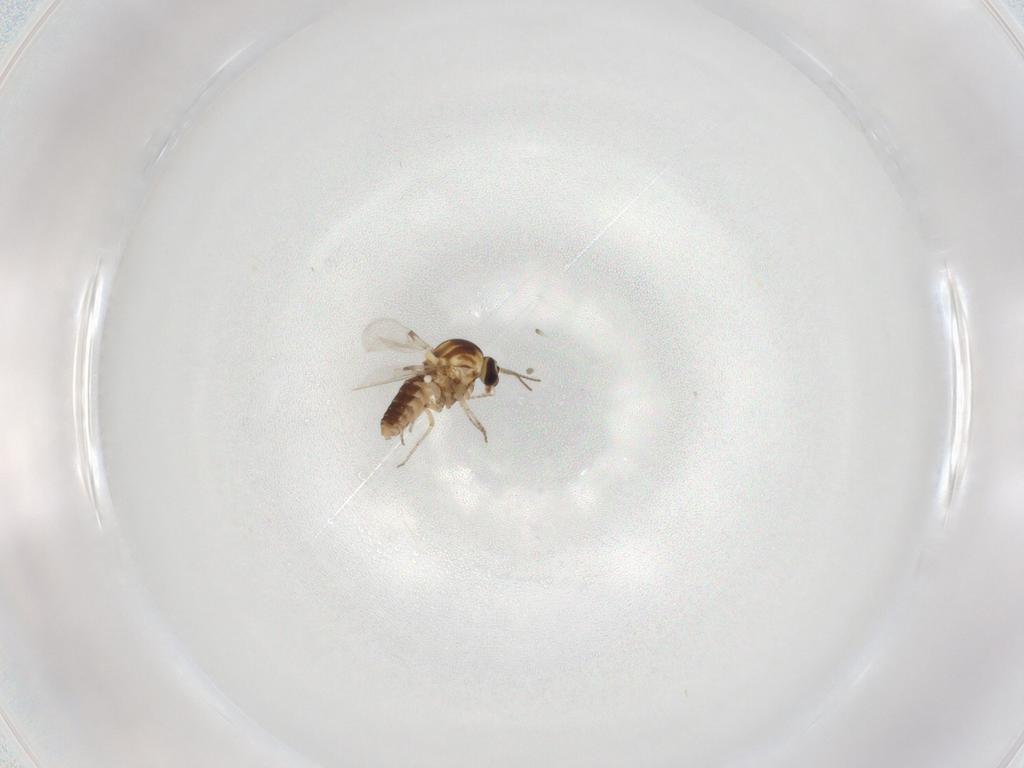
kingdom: Animalia
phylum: Arthropoda
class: Insecta
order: Diptera
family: Ceratopogonidae
